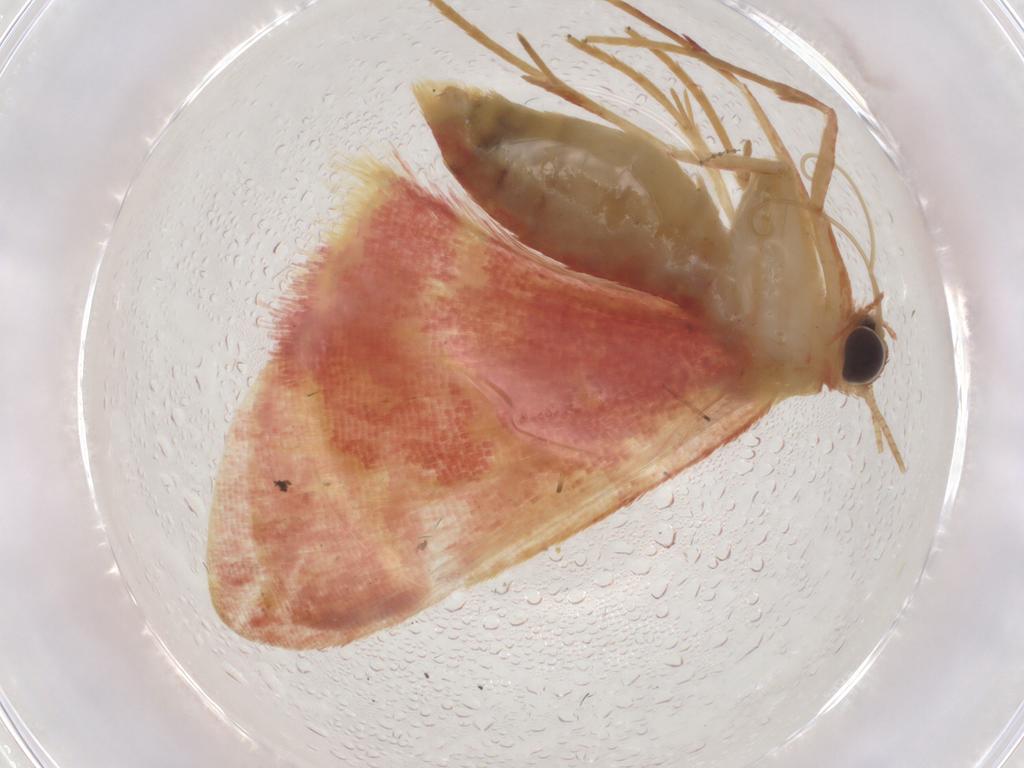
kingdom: Animalia
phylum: Arthropoda
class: Insecta
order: Lepidoptera
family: Geometridae
